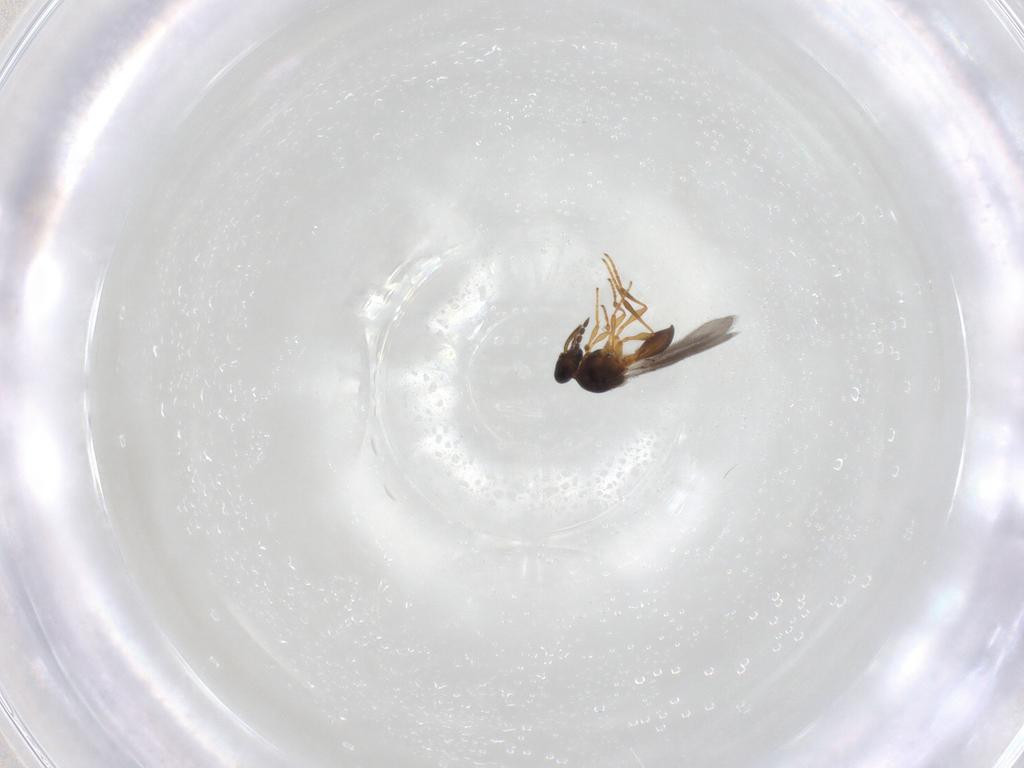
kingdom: Animalia
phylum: Arthropoda
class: Insecta
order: Hymenoptera
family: Platygastridae
